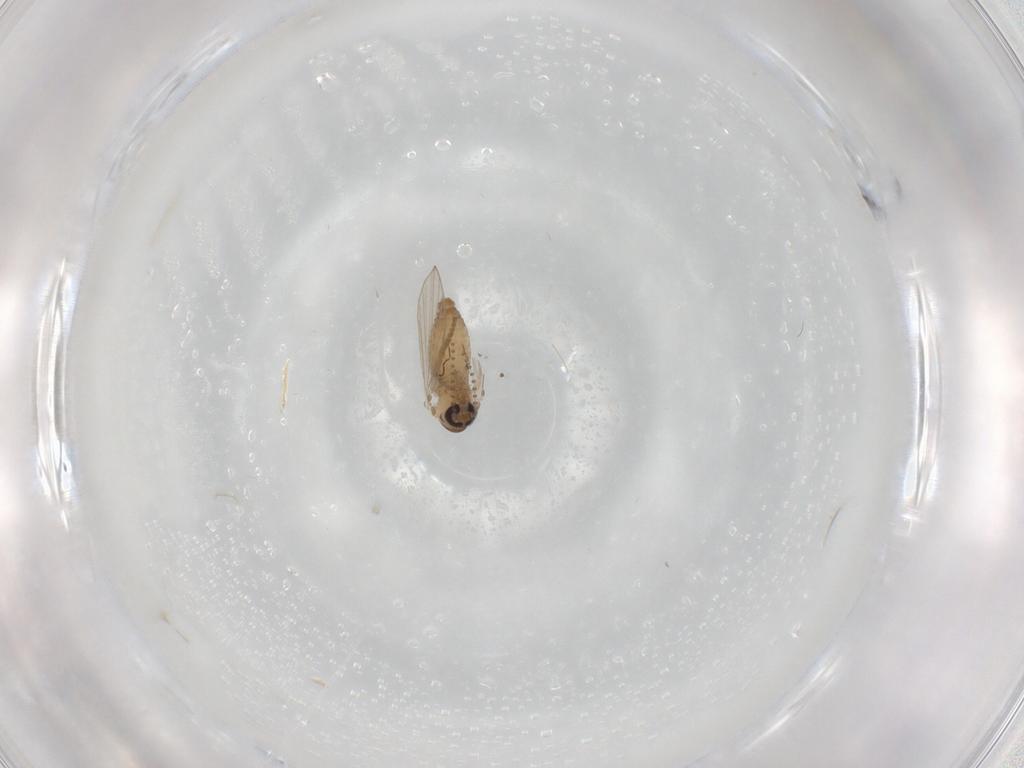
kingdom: Animalia
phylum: Arthropoda
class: Insecta
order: Diptera
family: Psychodidae
